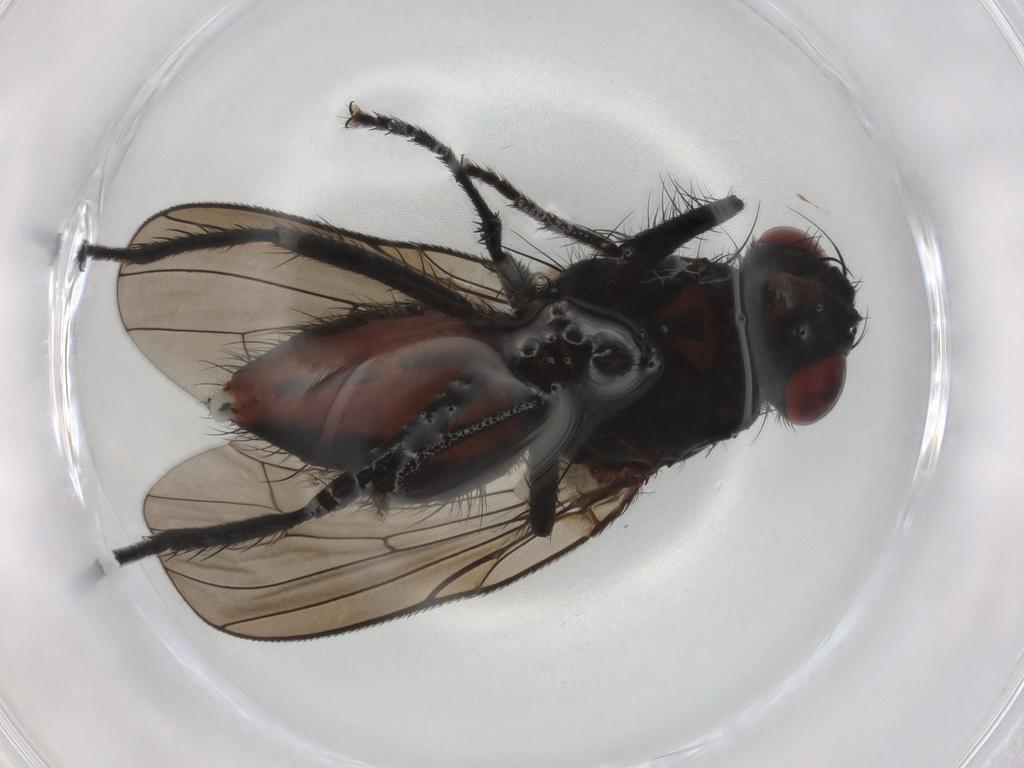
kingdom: Animalia
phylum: Arthropoda
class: Insecta
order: Diptera
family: Anthomyiidae
